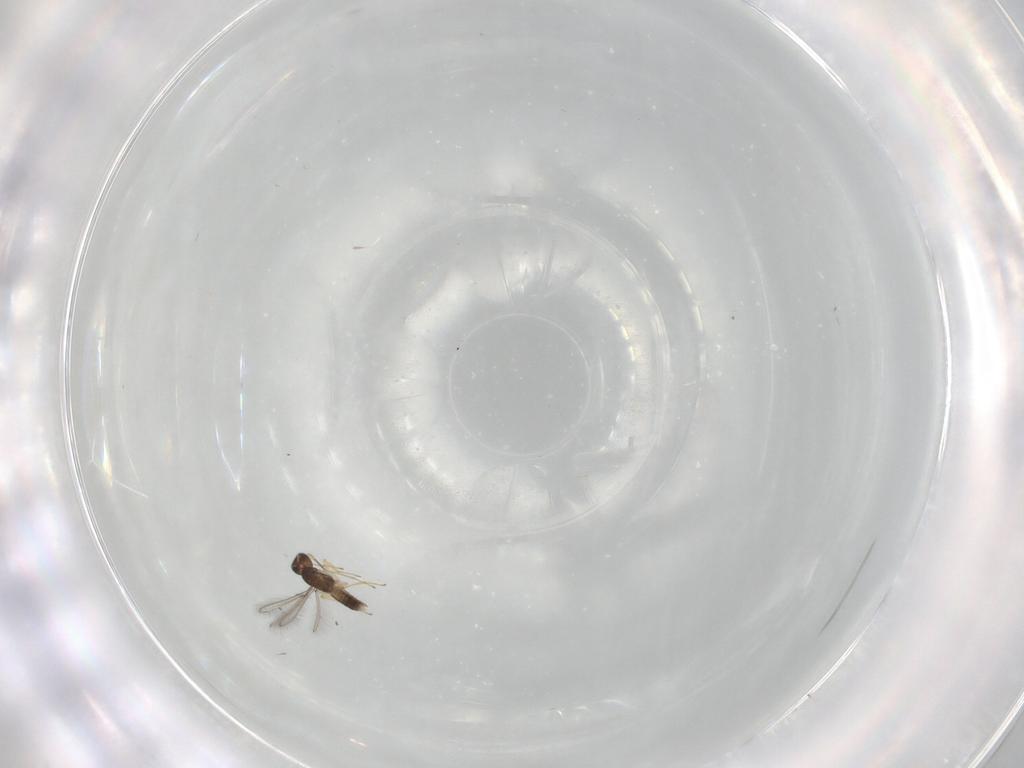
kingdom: Animalia
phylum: Arthropoda
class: Insecta
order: Hymenoptera
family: Mymaridae
